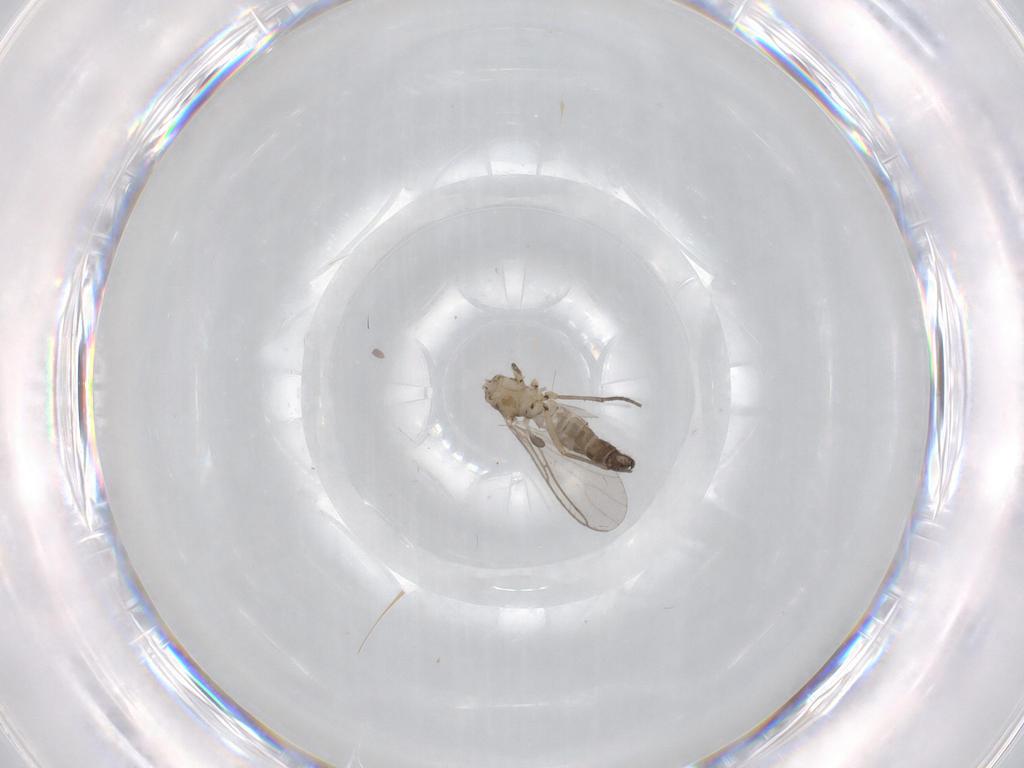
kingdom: Animalia
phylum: Arthropoda
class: Insecta
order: Diptera
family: Sciaridae
